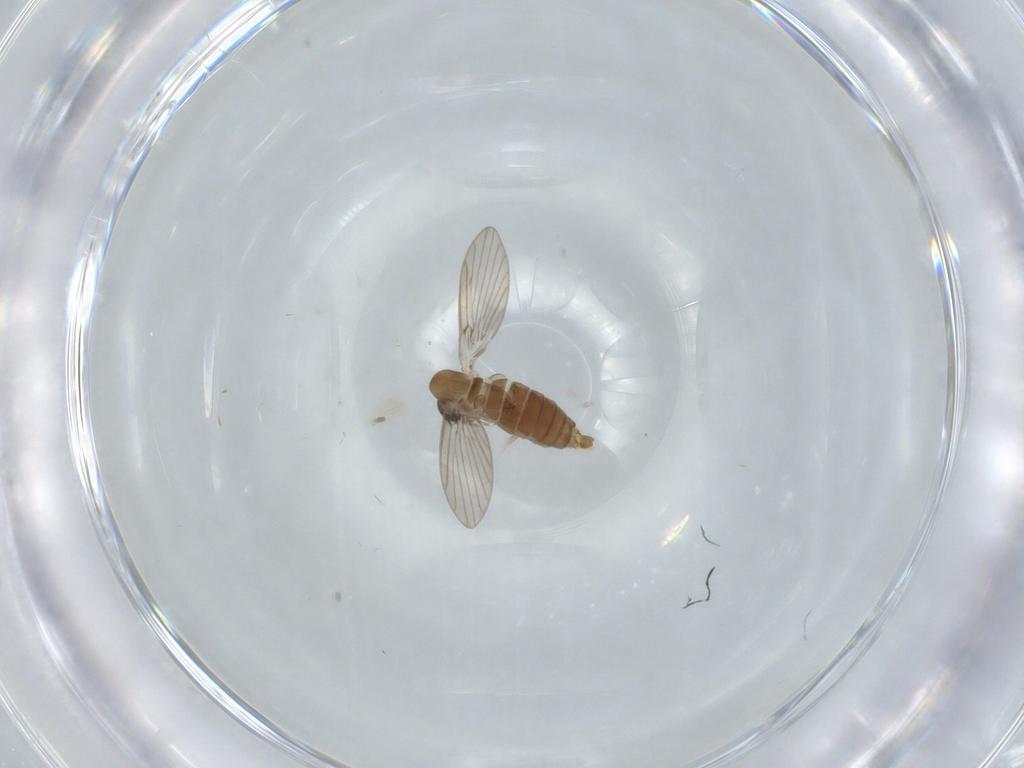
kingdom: Animalia
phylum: Arthropoda
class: Insecta
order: Diptera
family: Psychodidae
